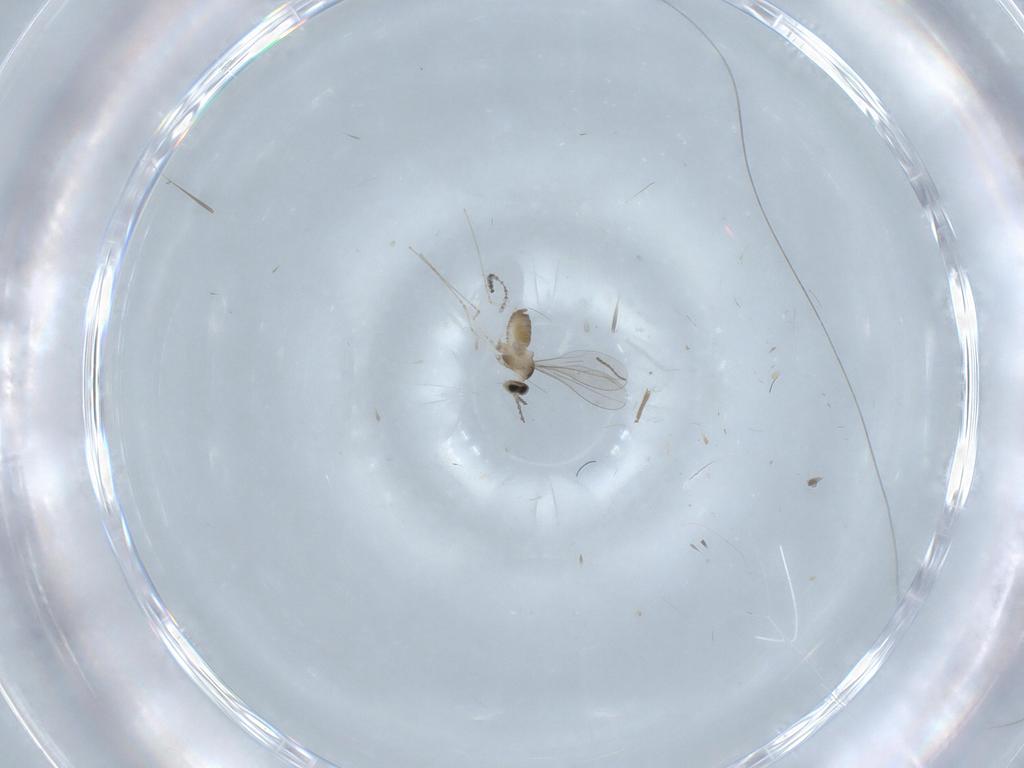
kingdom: Animalia
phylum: Arthropoda
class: Insecta
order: Diptera
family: Cecidomyiidae
